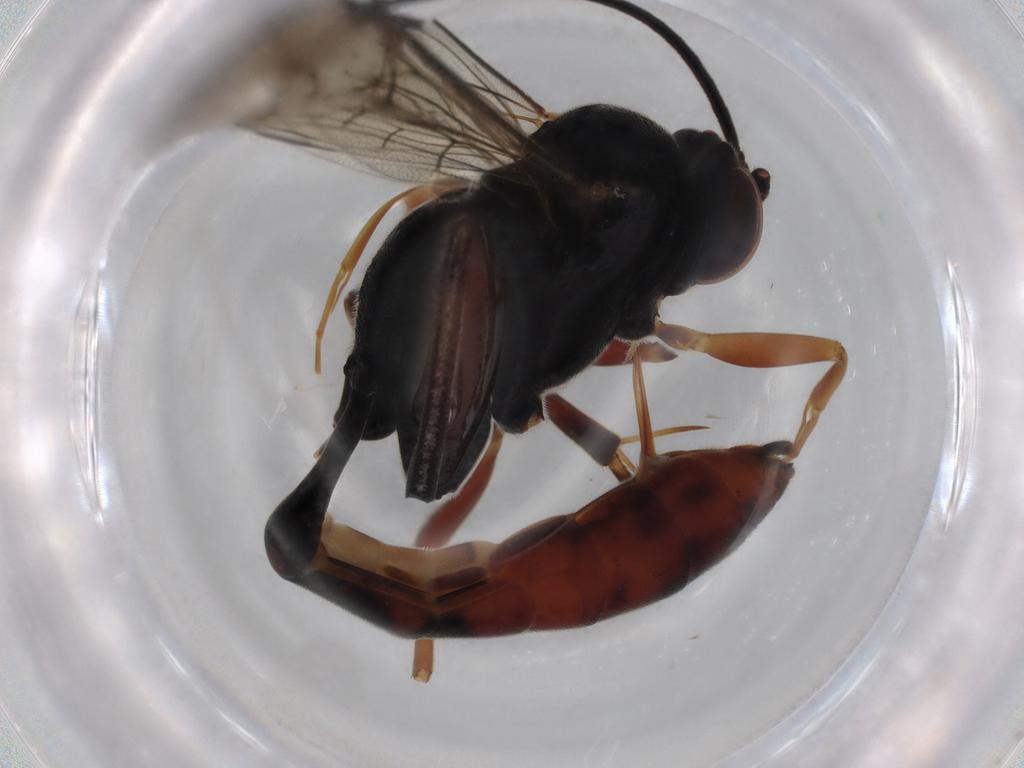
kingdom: Animalia
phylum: Arthropoda
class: Insecta
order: Hymenoptera
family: Ichneumonidae
